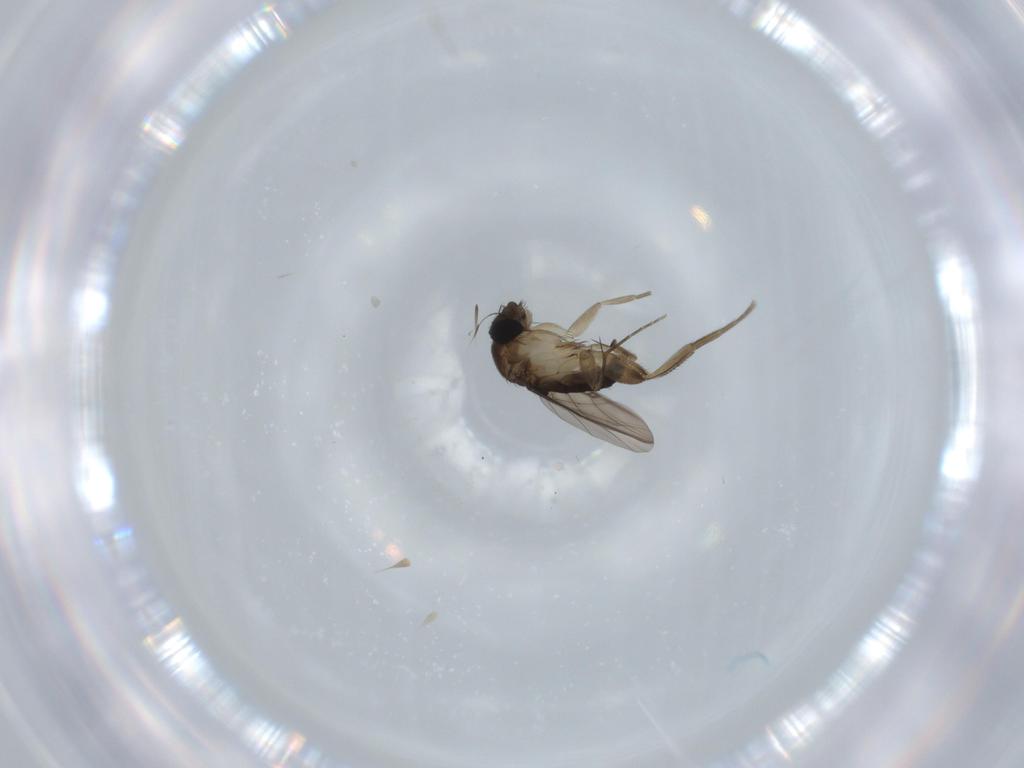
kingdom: Animalia
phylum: Arthropoda
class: Insecta
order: Diptera
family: Phoridae
